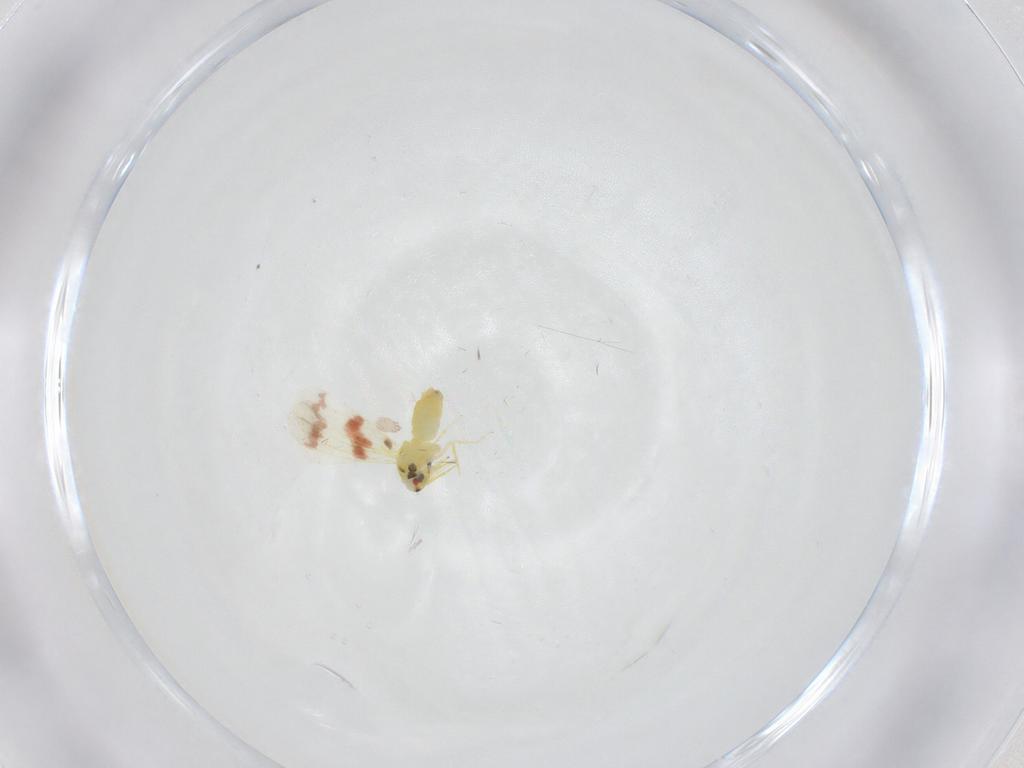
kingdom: Animalia
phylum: Arthropoda
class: Insecta
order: Hemiptera
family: Aleyrodidae
